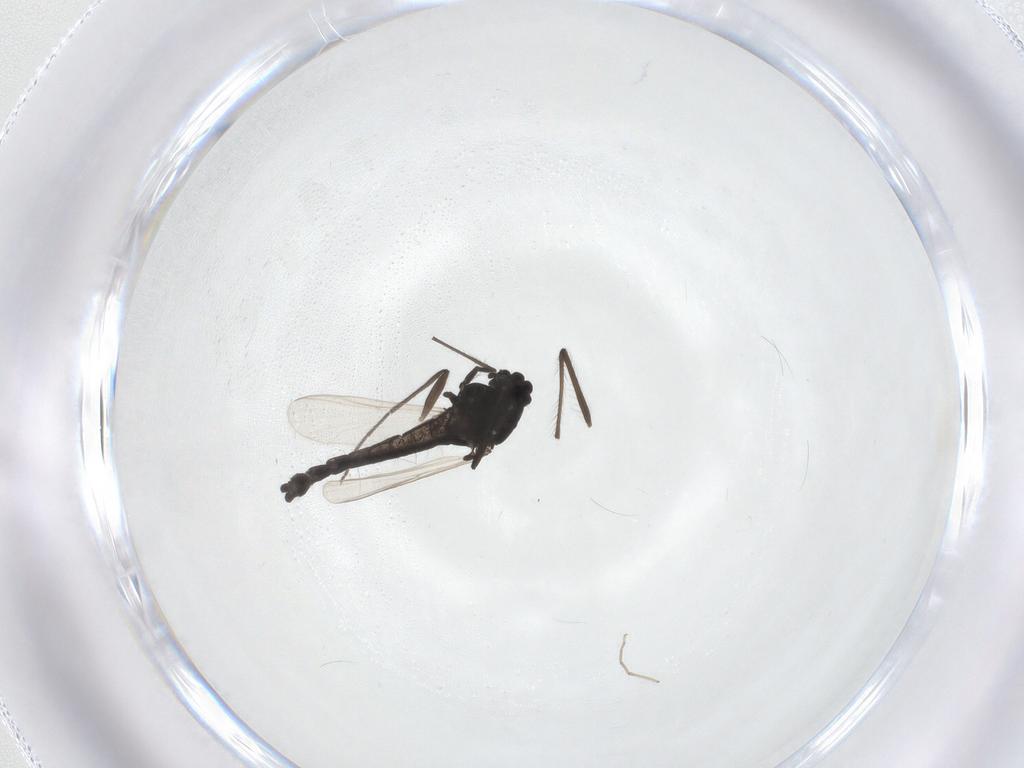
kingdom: Animalia
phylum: Arthropoda
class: Insecta
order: Diptera
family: Chironomidae
